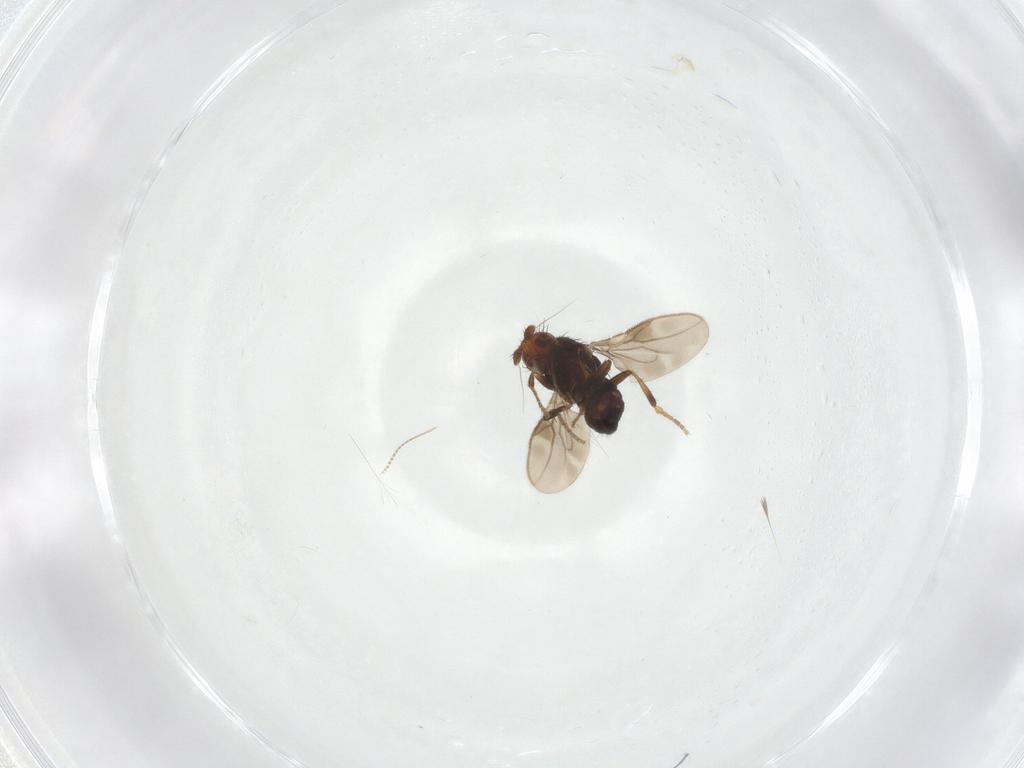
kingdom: Animalia
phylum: Arthropoda
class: Insecta
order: Diptera
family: Sphaeroceridae
